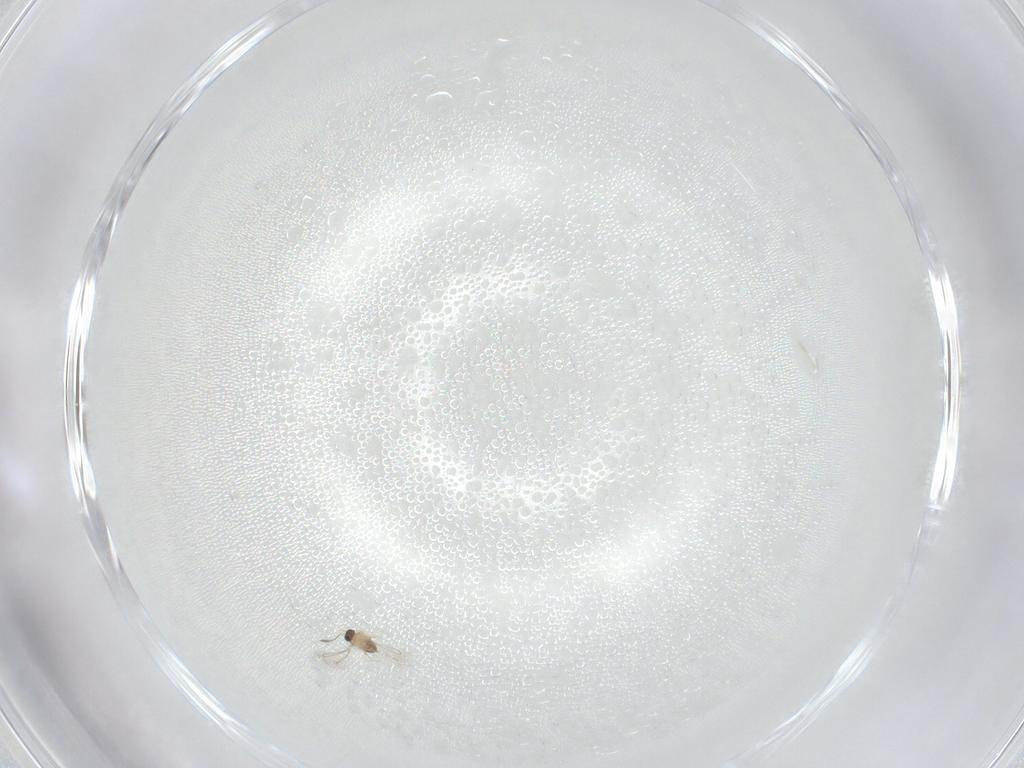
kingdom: Animalia
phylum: Arthropoda
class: Insecta
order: Hymenoptera
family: Mymaridae
